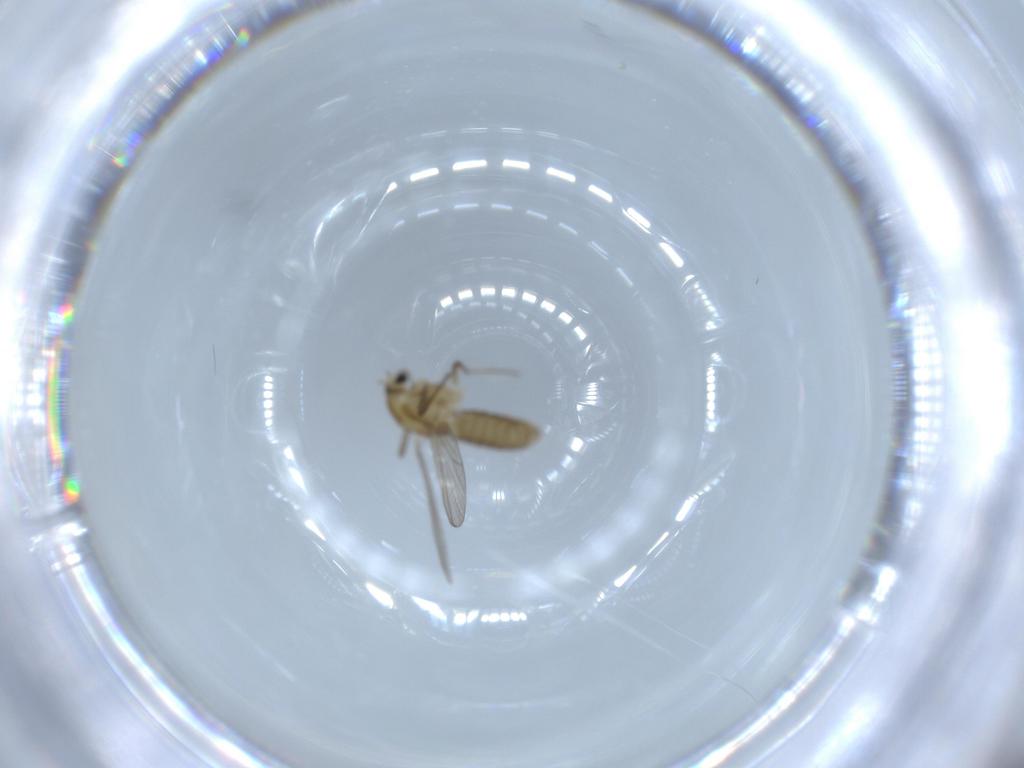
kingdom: Animalia
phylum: Arthropoda
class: Insecta
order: Diptera
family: Chironomidae
